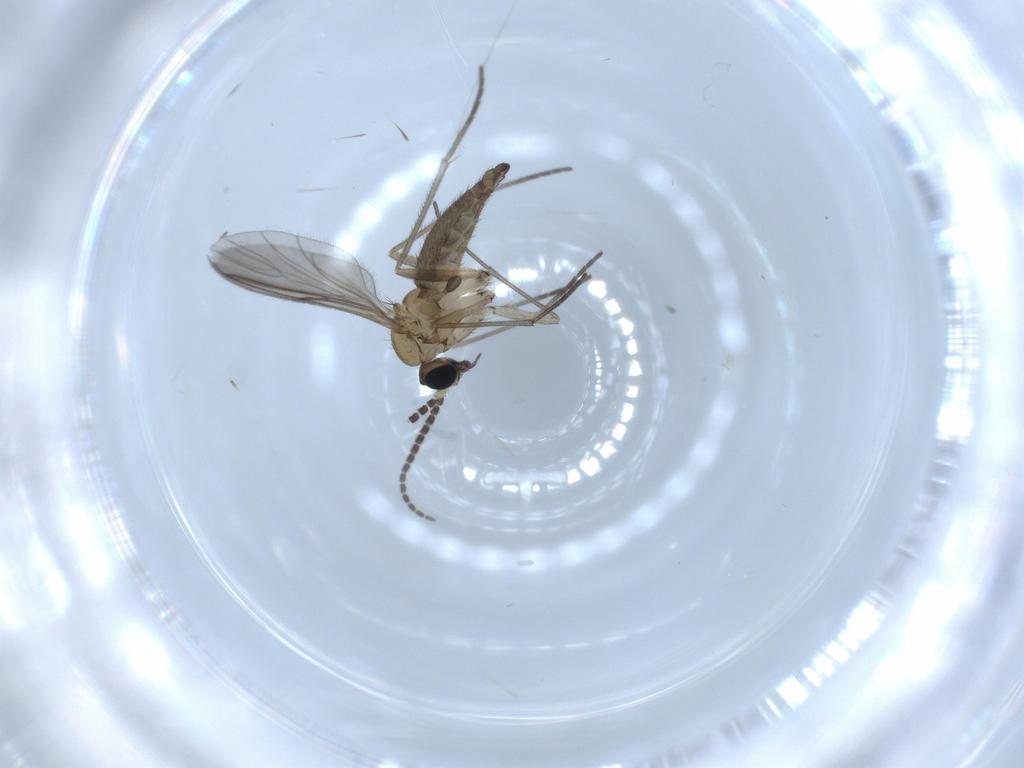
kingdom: Animalia
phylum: Arthropoda
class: Insecta
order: Diptera
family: Sciaridae
